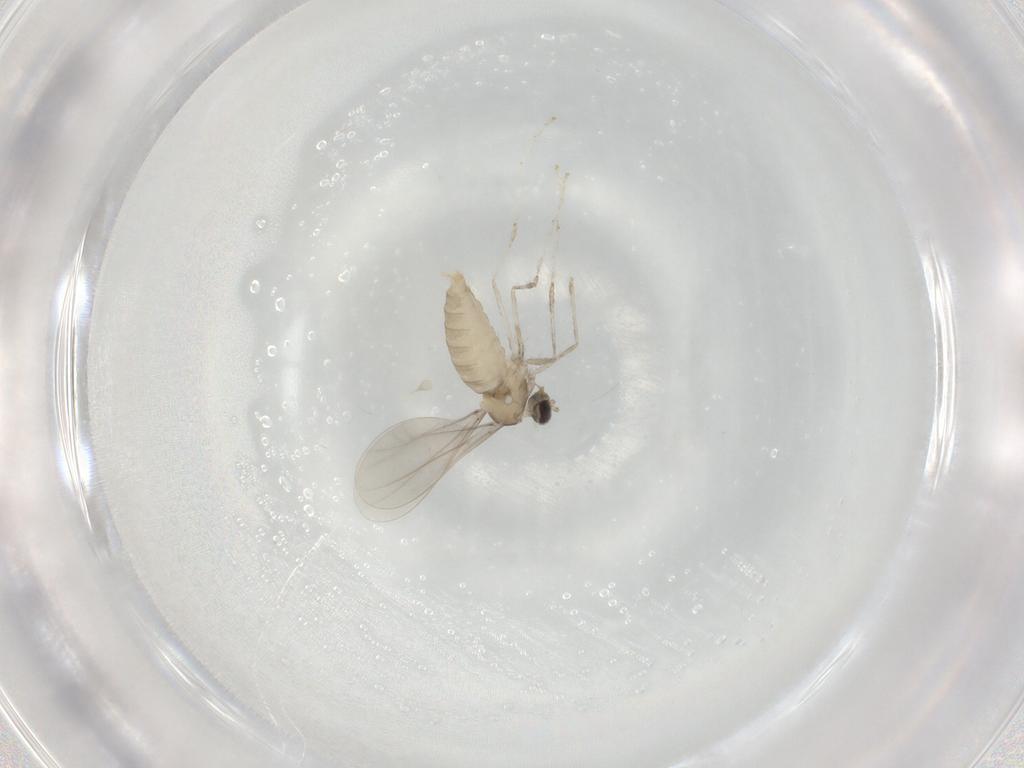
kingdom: Animalia
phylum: Arthropoda
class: Insecta
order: Diptera
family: Cecidomyiidae
